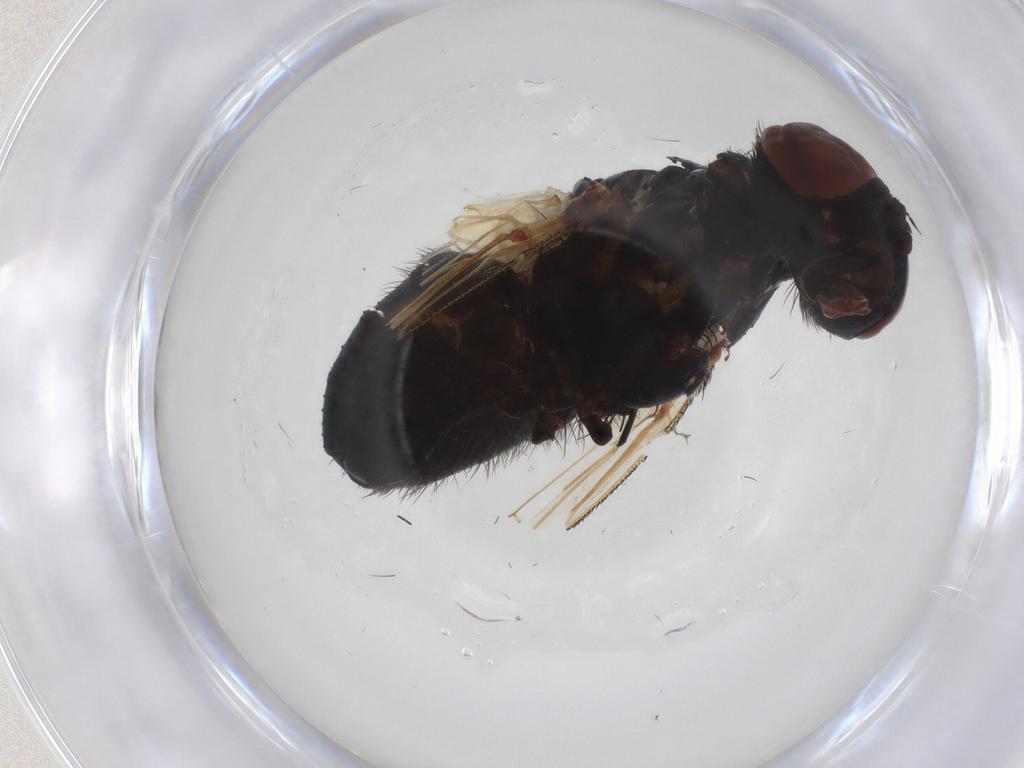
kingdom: Animalia
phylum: Arthropoda
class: Insecta
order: Diptera
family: Tachinidae
